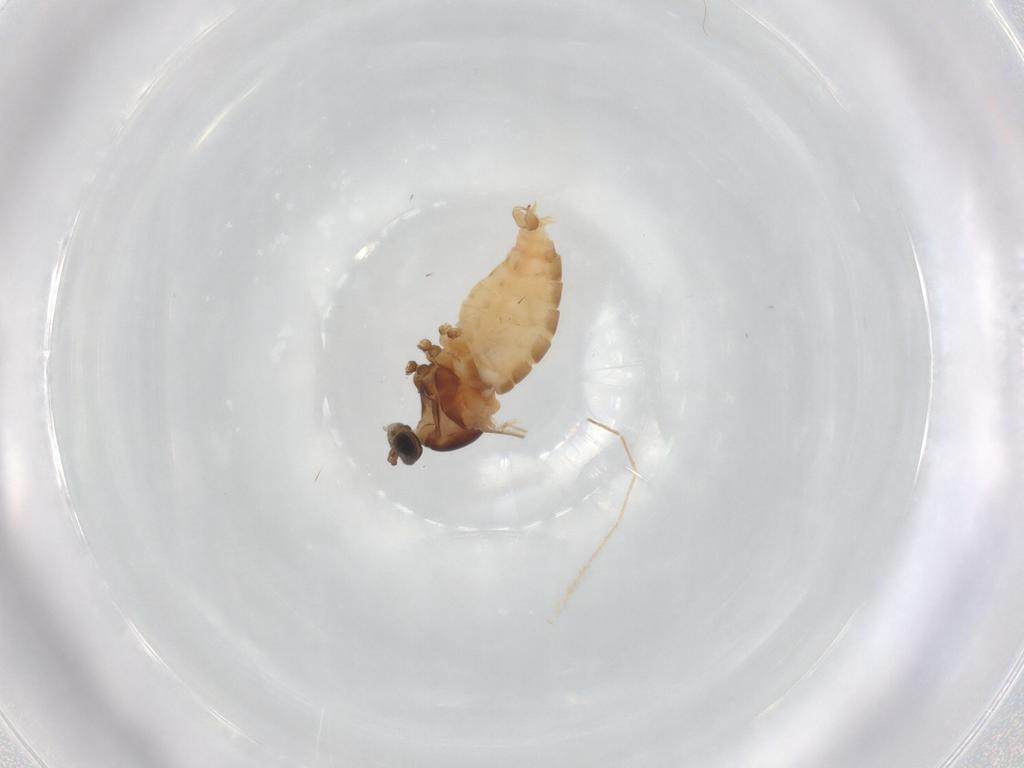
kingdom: Animalia
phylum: Arthropoda
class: Insecta
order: Diptera
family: Cecidomyiidae
